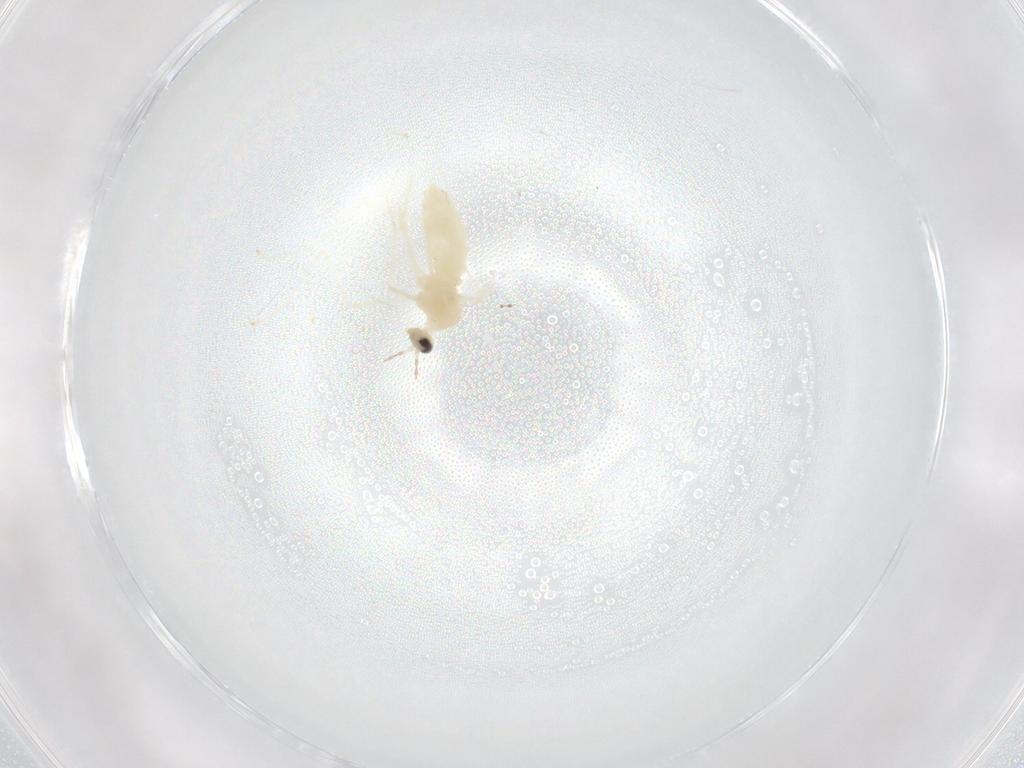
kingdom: Animalia
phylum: Arthropoda
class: Insecta
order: Diptera
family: Cecidomyiidae
